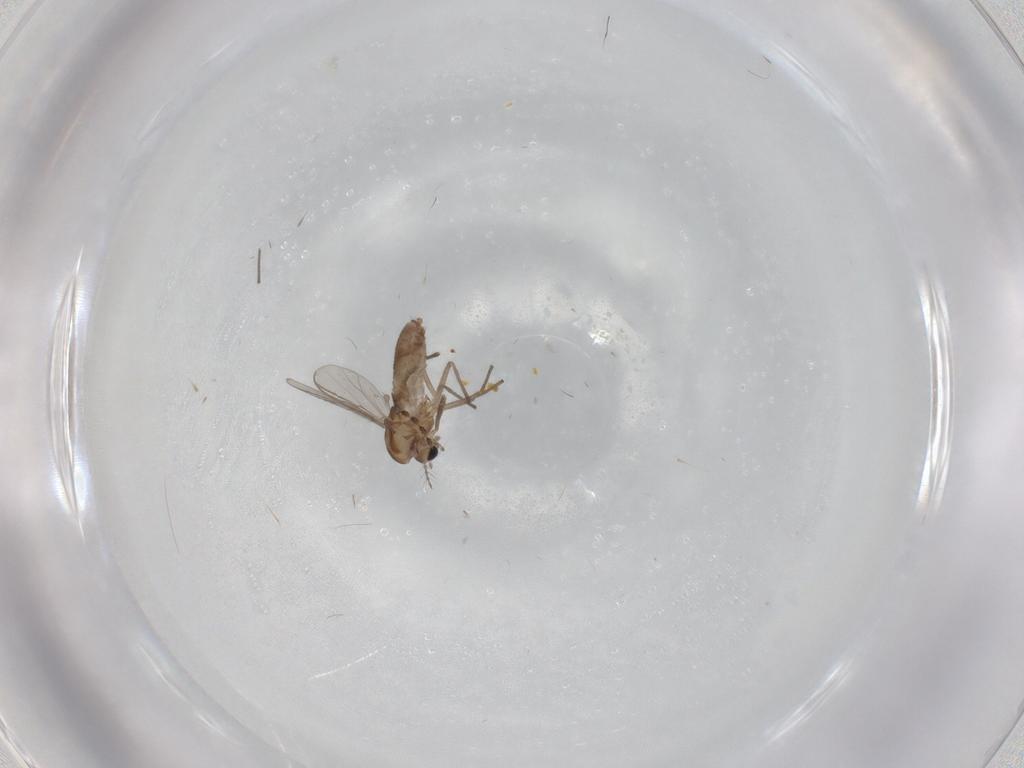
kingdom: Animalia
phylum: Arthropoda
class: Insecta
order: Diptera
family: Chironomidae
